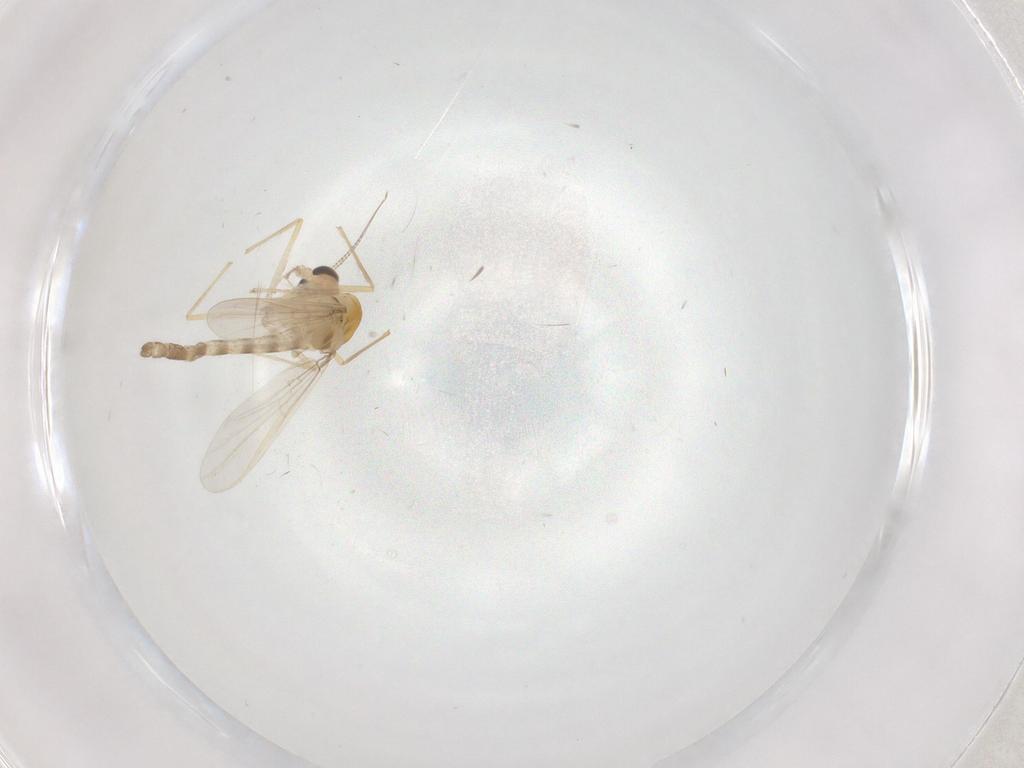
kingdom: Animalia
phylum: Arthropoda
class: Insecta
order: Diptera
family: Chironomidae
